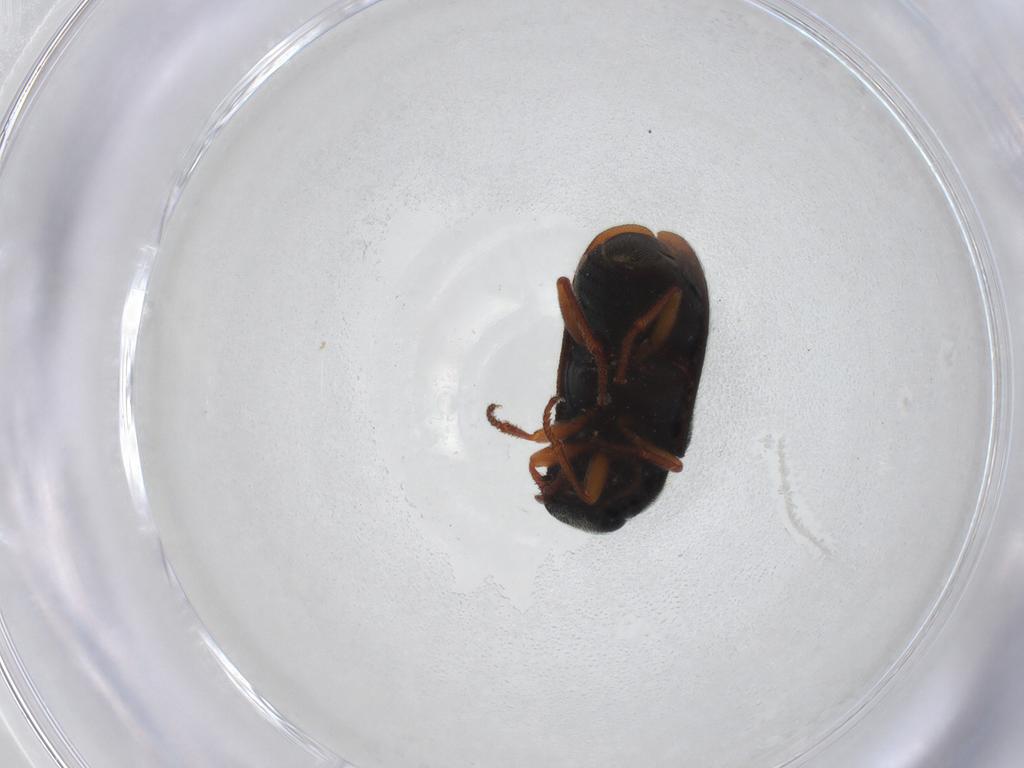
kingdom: Animalia
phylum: Arthropoda
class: Insecta
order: Coleoptera
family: Melyridae
